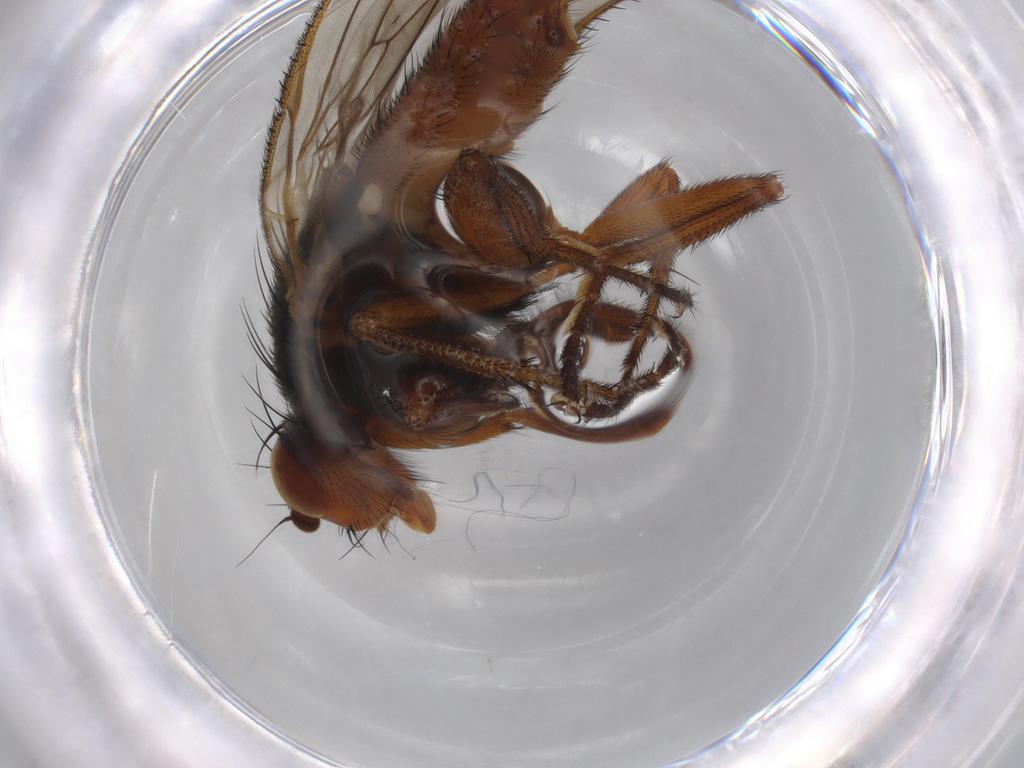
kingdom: Animalia
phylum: Arthropoda
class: Insecta
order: Diptera
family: Heleomyzidae
